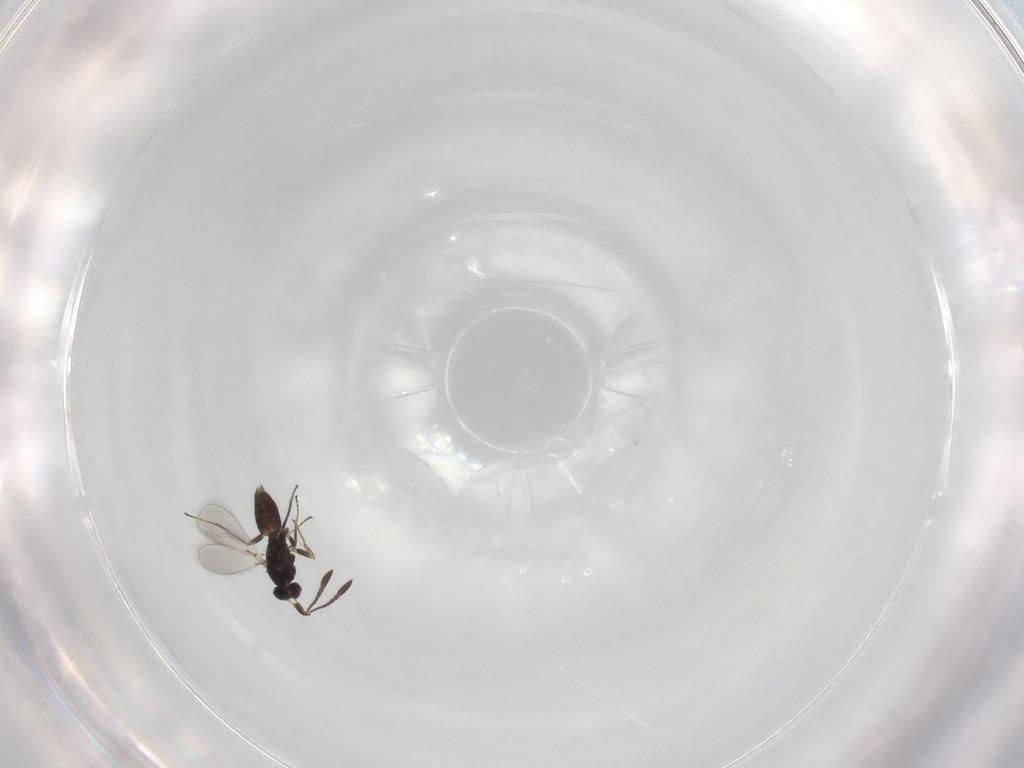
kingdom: Animalia
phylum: Arthropoda
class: Insecta
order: Hymenoptera
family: Mymaridae
